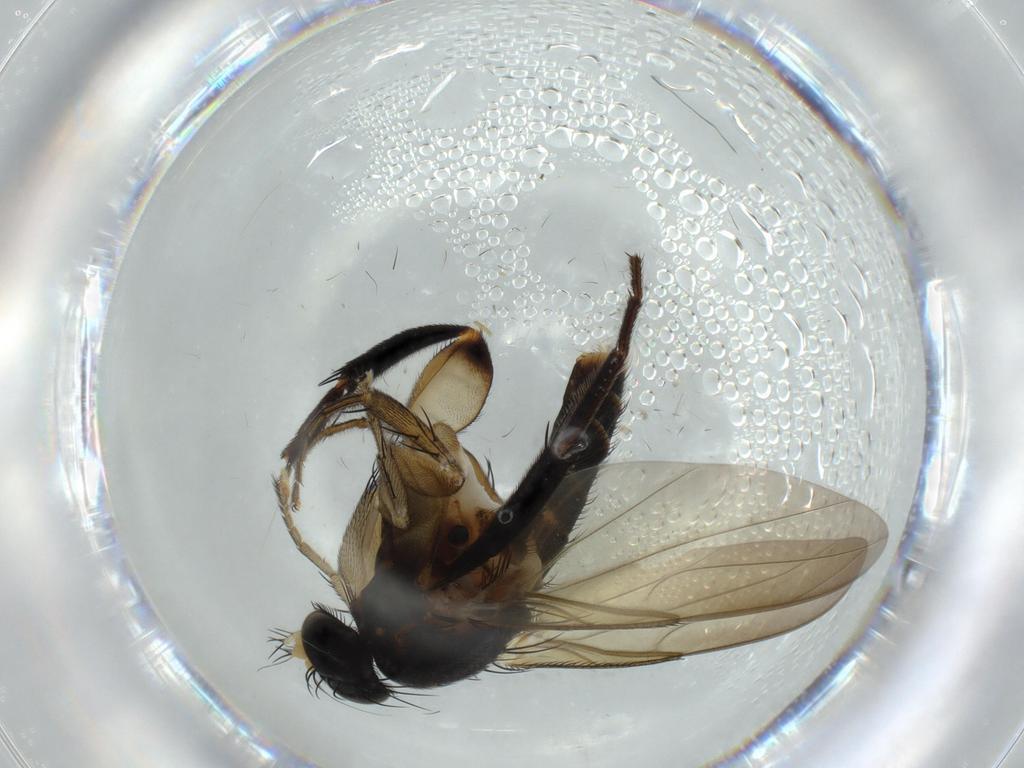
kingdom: Animalia
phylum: Arthropoda
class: Insecta
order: Diptera
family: Phoridae
